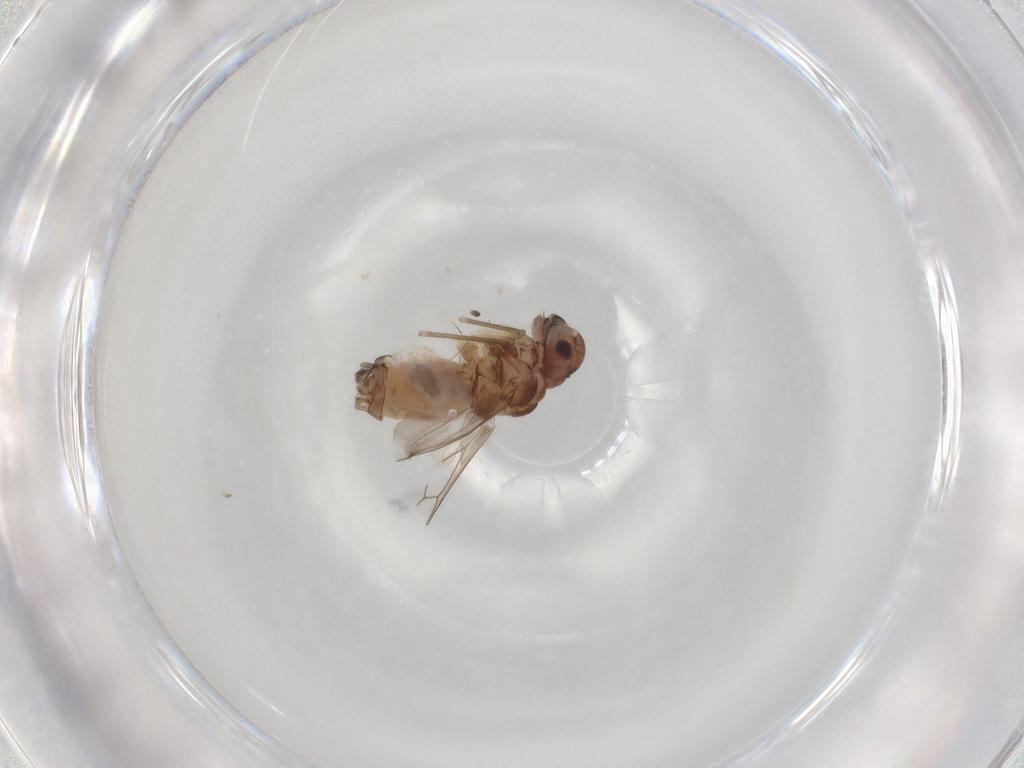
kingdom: Animalia
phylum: Arthropoda
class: Insecta
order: Psocodea
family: Peripsocidae
